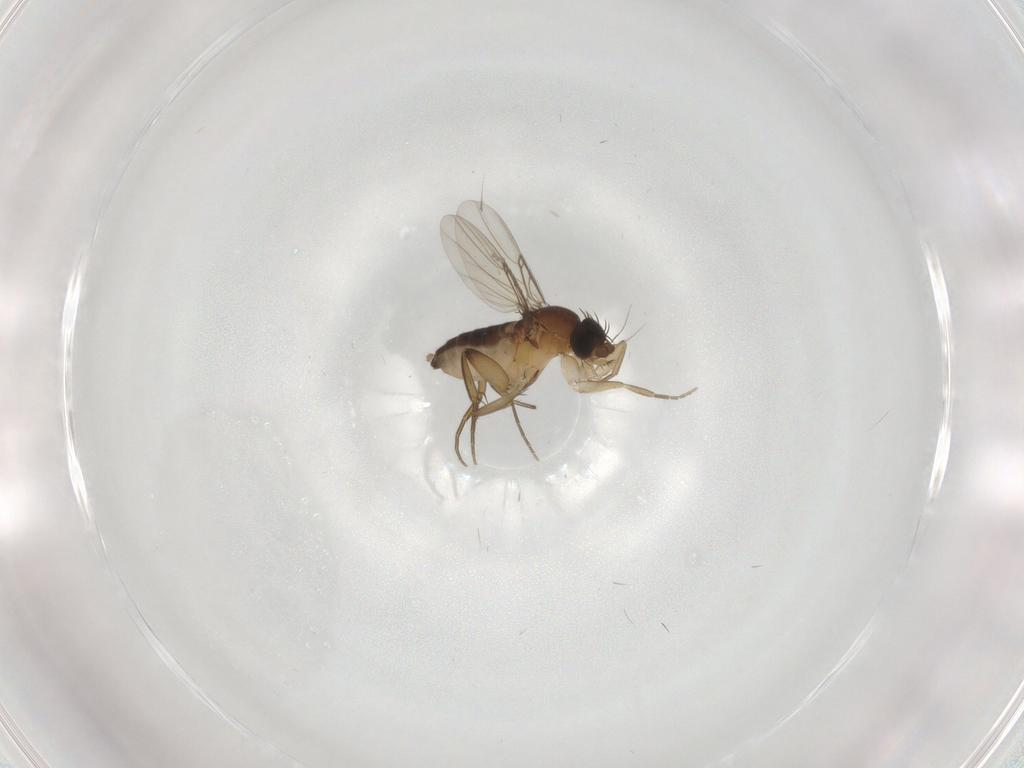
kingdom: Animalia
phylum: Arthropoda
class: Insecta
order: Diptera
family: Phoridae
